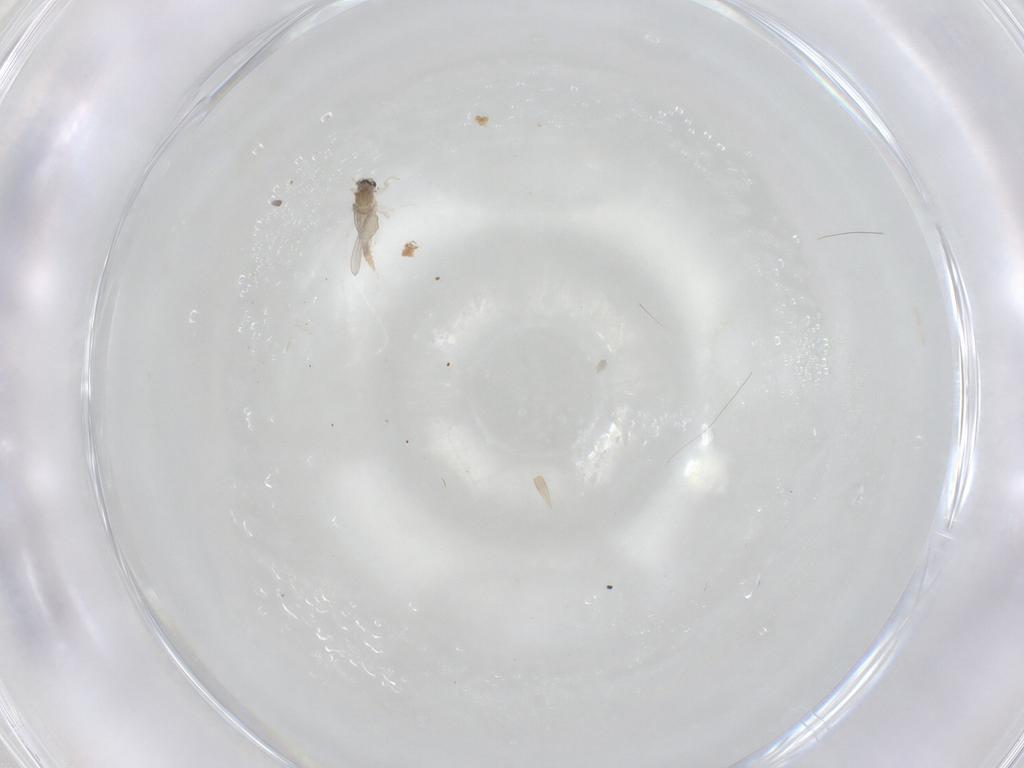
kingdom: Animalia
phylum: Arthropoda
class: Insecta
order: Diptera
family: Cecidomyiidae
